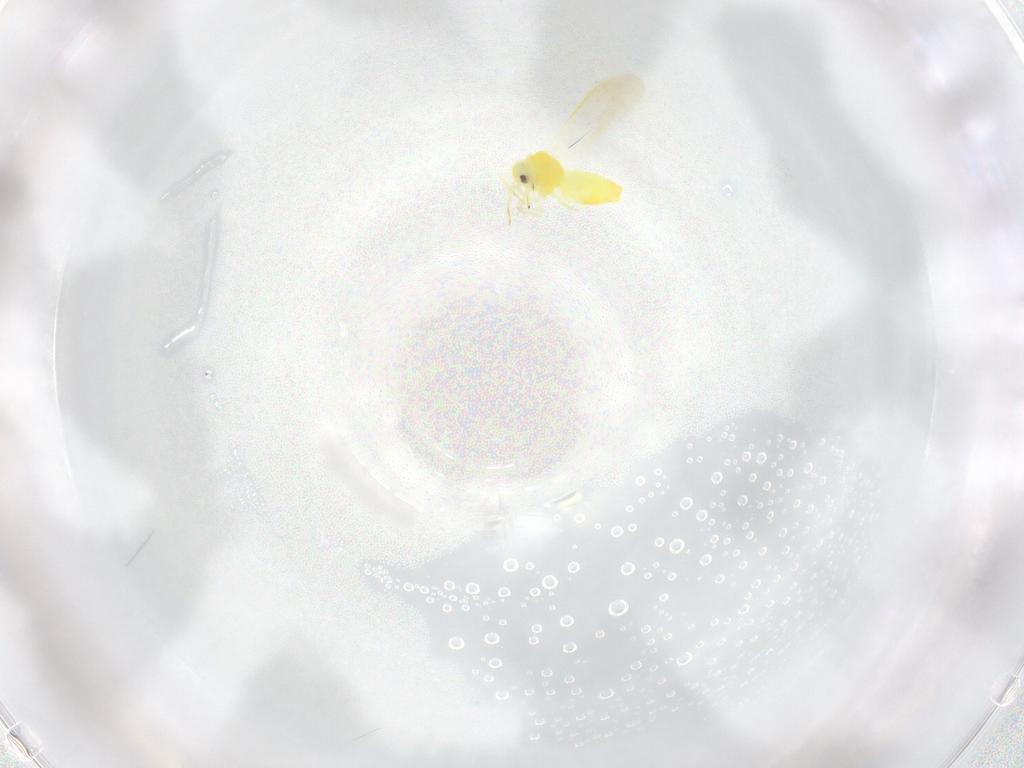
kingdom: Animalia
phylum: Arthropoda
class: Insecta
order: Hemiptera
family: Aleyrodidae
